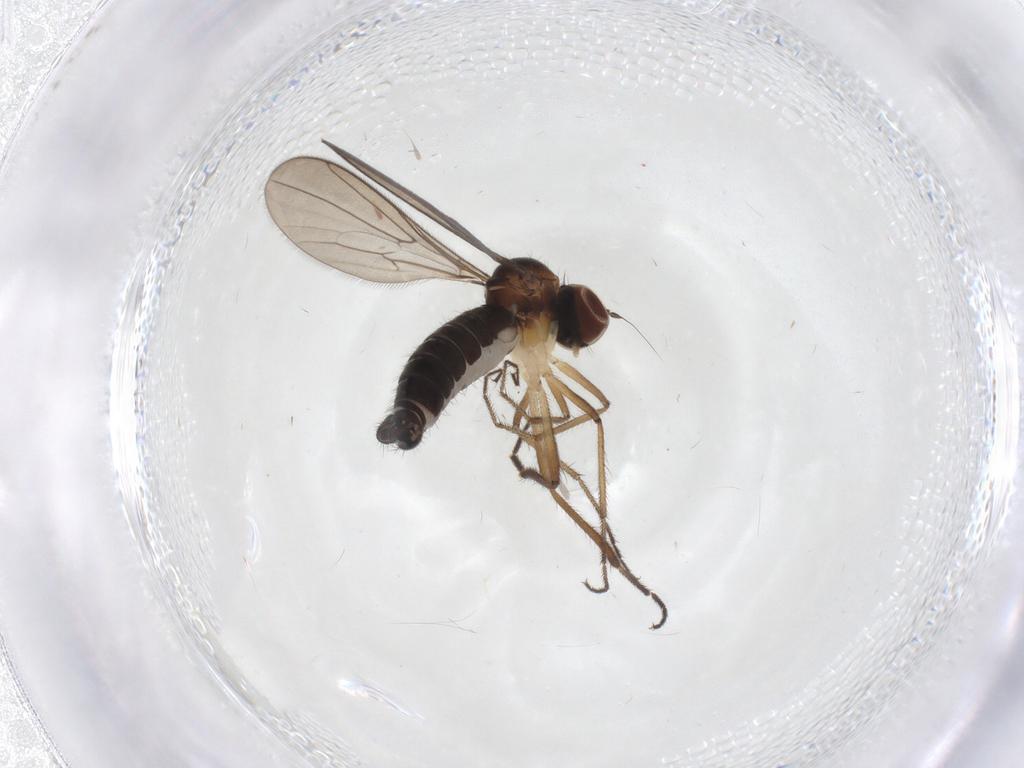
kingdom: Animalia
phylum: Arthropoda
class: Insecta
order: Diptera
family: Hybotidae
